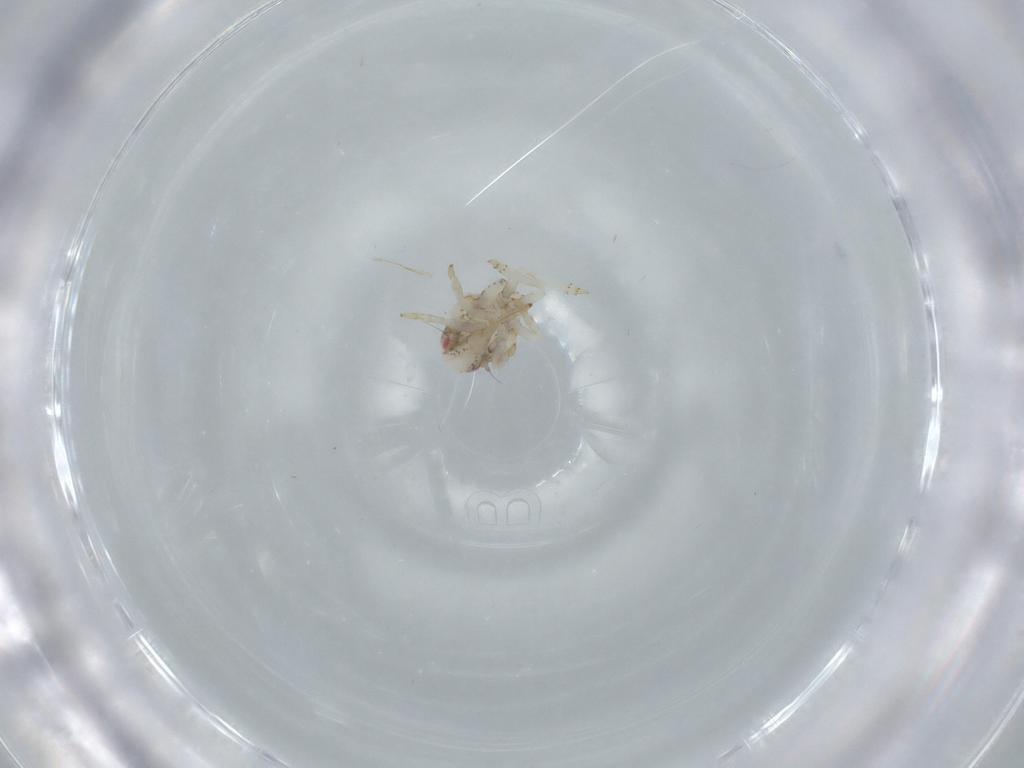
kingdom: Animalia
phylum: Arthropoda
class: Insecta
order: Hemiptera
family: Acanaloniidae
